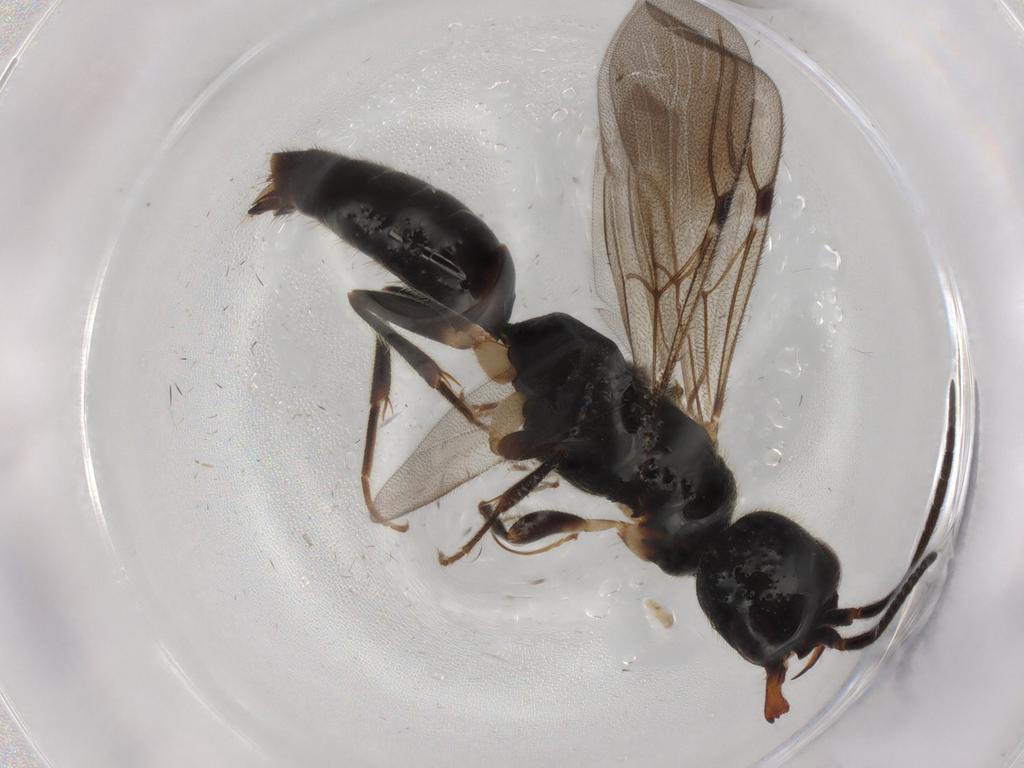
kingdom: Animalia
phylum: Arthropoda
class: Insecta
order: Hymenoptera
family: Bethylidae
